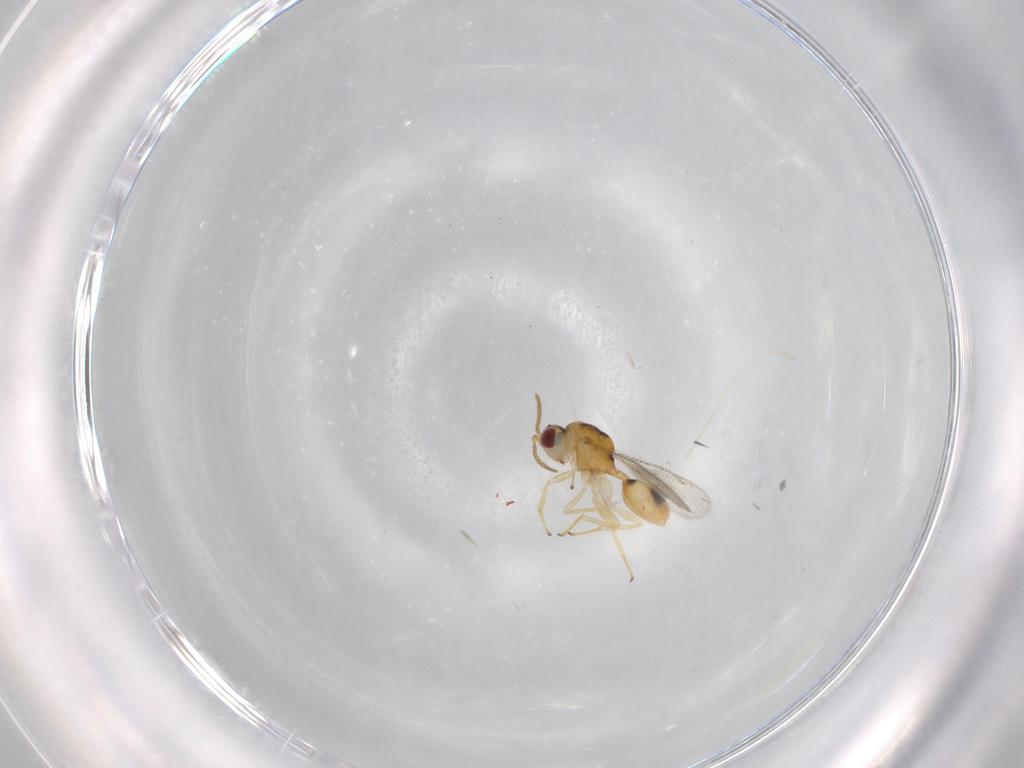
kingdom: Animalia
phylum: Arthropoda
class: Insecta
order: Hymenoptera
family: Eurytomidae
